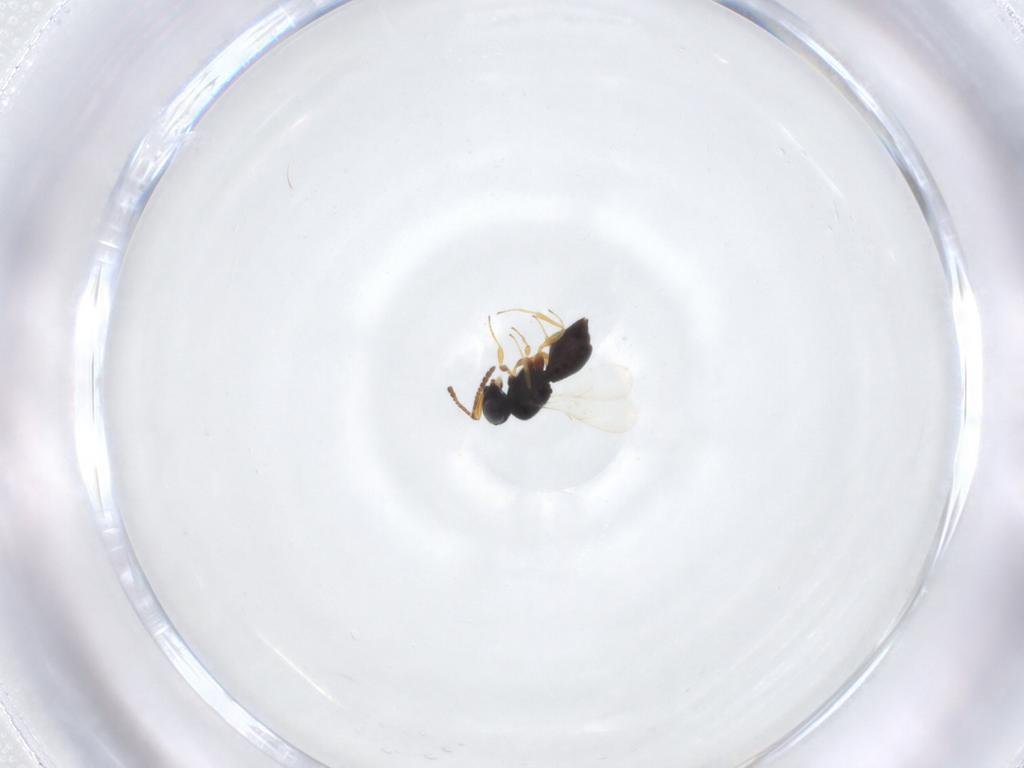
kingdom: Animalia
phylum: Arthropoda
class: Insecta
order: Hymenoptera
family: Scelionidae
